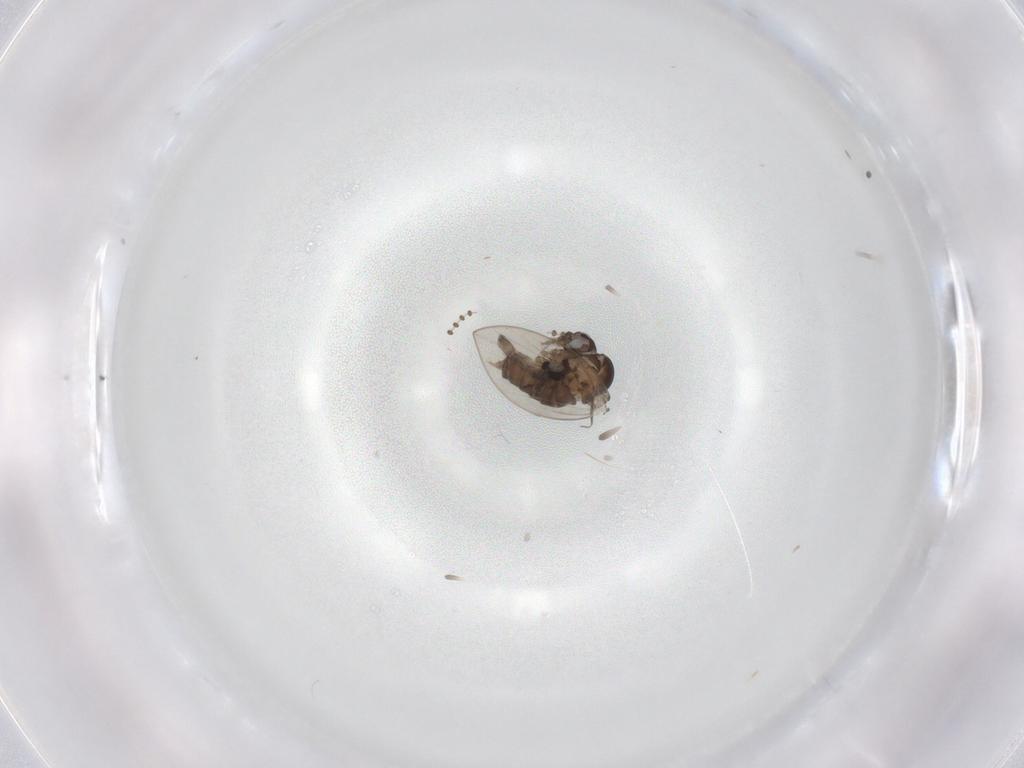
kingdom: Animalia
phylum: Arthropoda
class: Insecta
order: Diptera
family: Psychodidae
